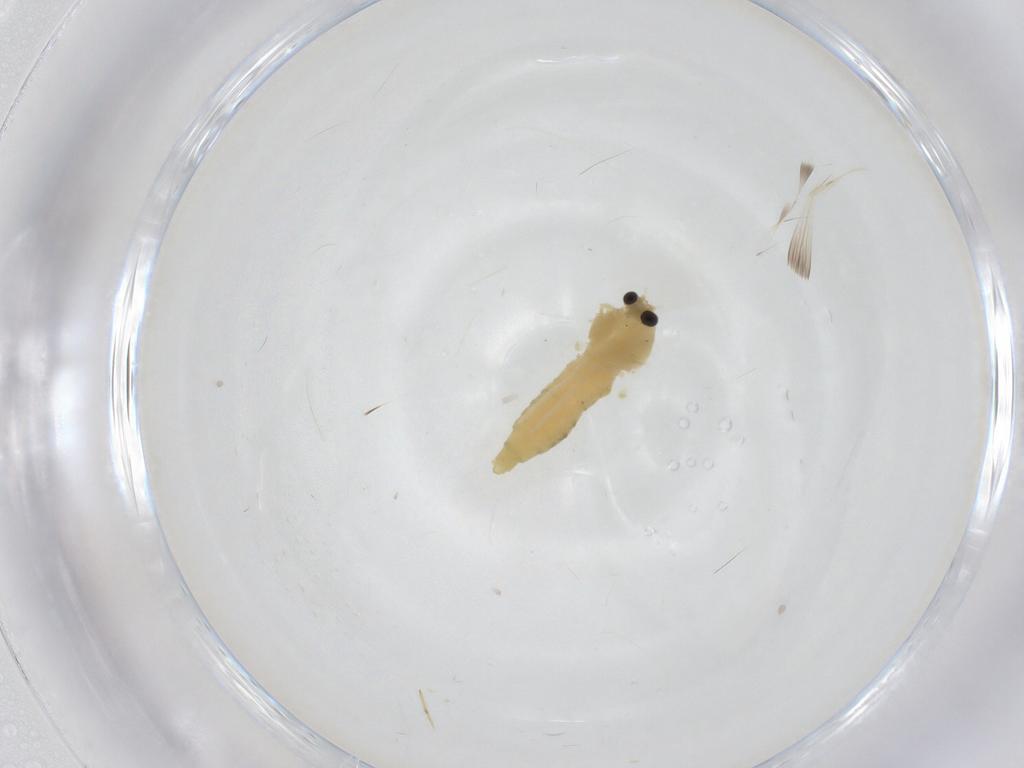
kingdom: Animalia
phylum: Arthropoda
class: Insecta
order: Diptera
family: Chironomidae
